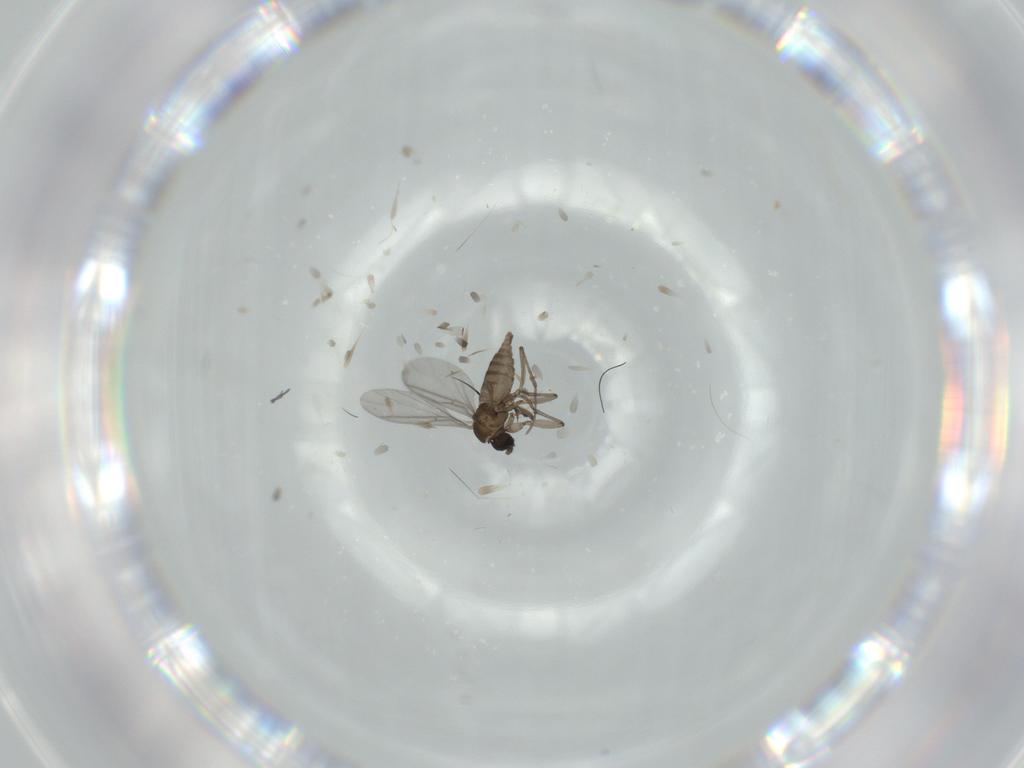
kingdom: Animalia
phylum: Arthropoda
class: Insecta
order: Diptera
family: Sciaridae
